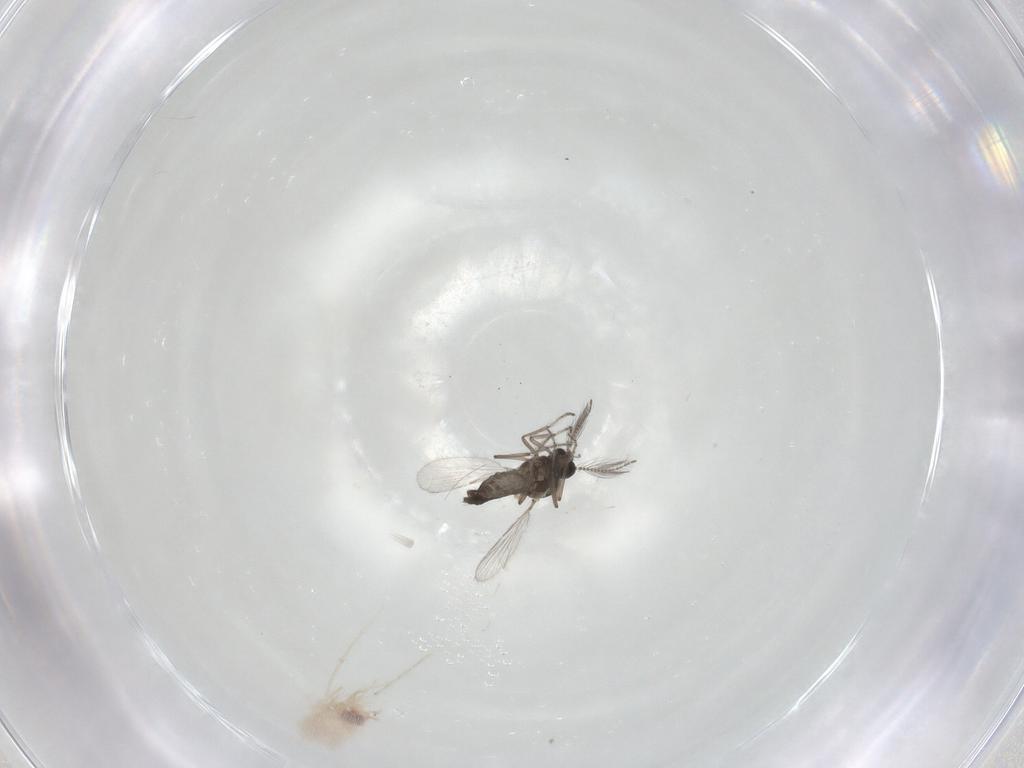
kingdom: Animalia
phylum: Arthropoda
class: Insecta
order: Diptera
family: Ceratopogonidae
